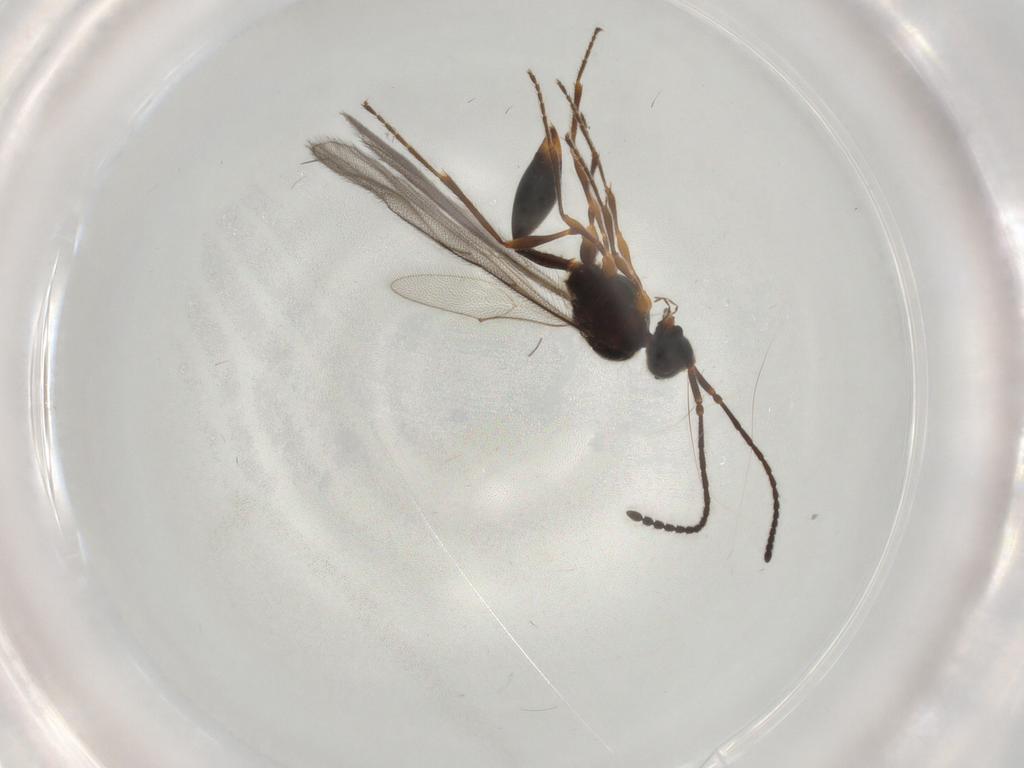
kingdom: Animalia
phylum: Arthropoda
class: Insecta
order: Hymenoptera
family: Diapriidae
